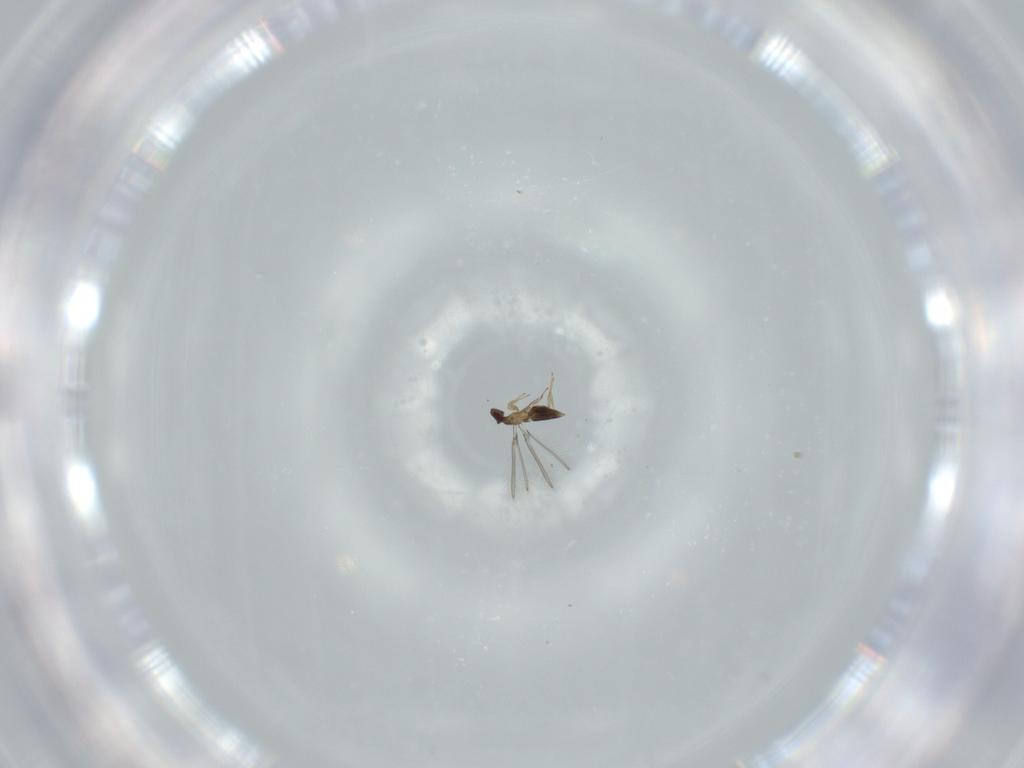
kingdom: Animalia
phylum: Arthropoda
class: Insecta
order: Hymenoptera
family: Mymaridae
